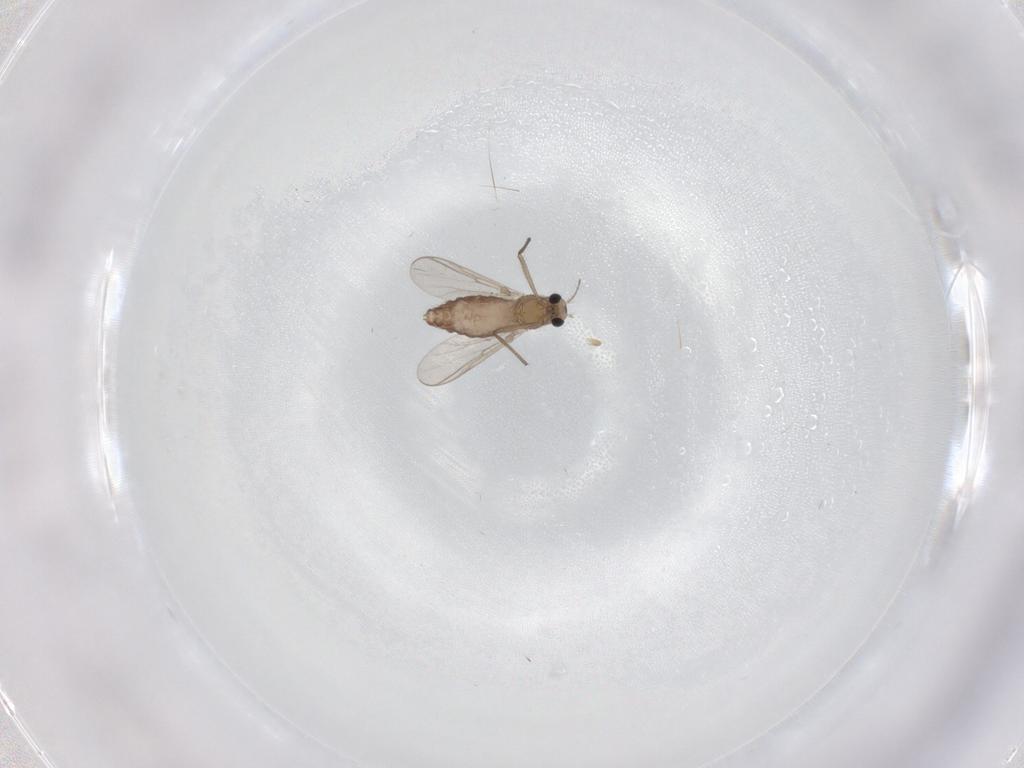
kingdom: Animalia
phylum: Arthropoda
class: Insecta
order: Diptera
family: Chironomidae
